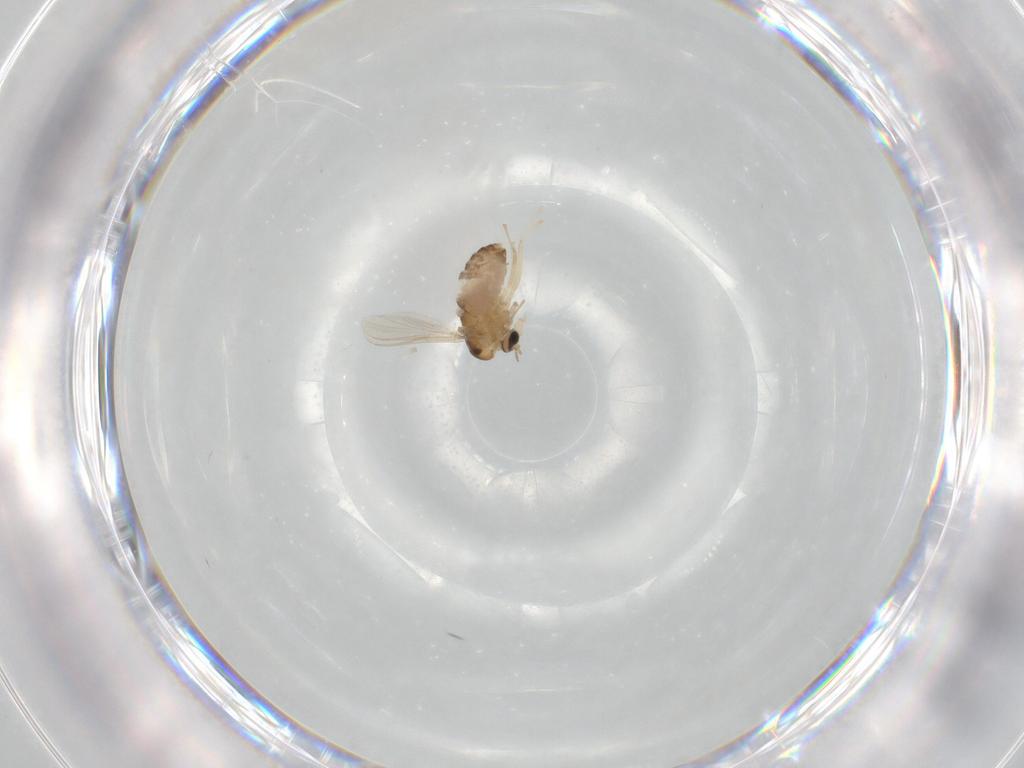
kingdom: Animalia
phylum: Arthropoda
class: Insecta
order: Diptera
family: Chironomidae
